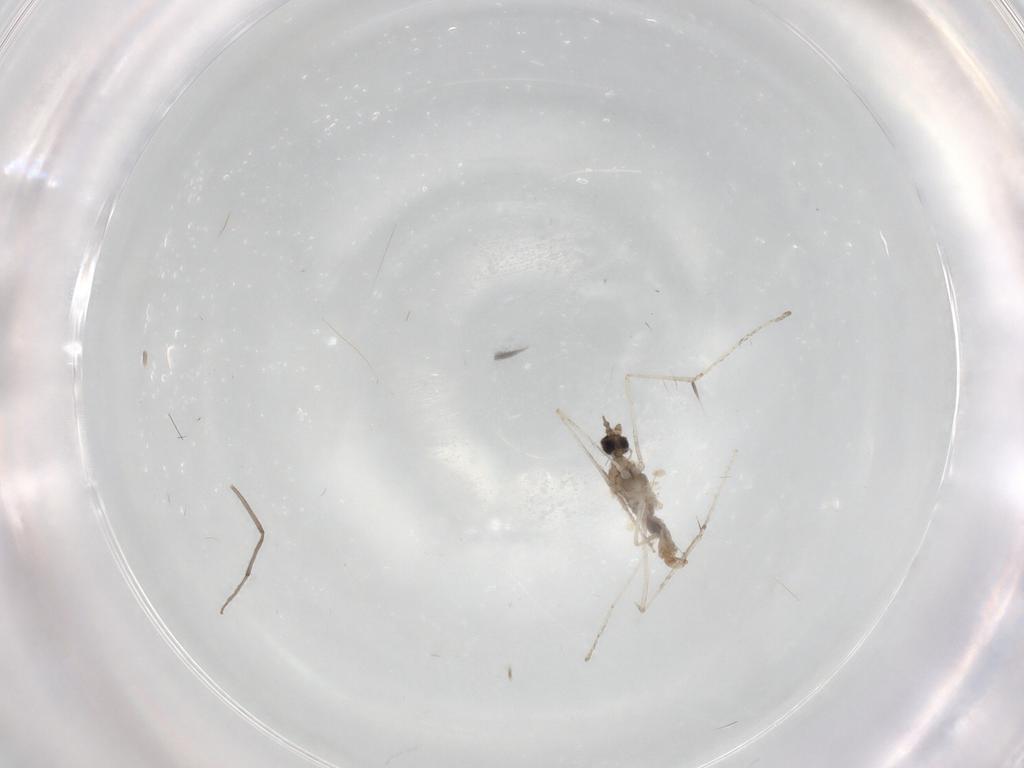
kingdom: Animalia
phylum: Arthropoda
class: Insecta
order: Diptera
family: Cecidomyiidae
